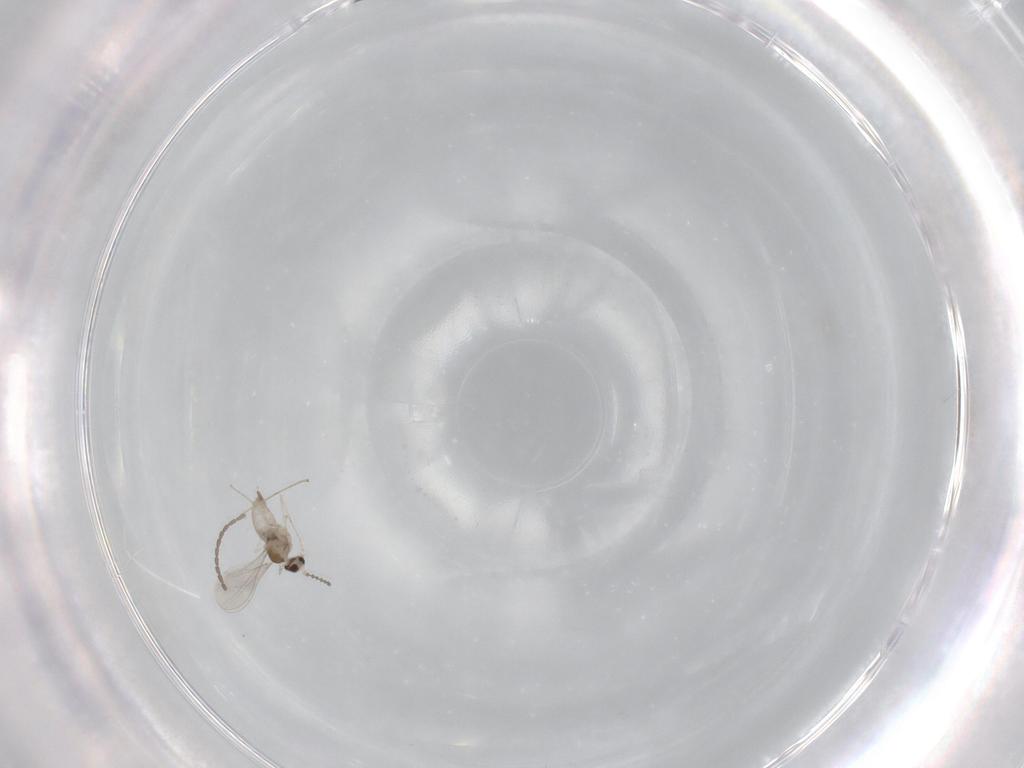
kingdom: Animalia
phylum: Arthropoda
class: Insecta
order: Diptera
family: Cecidomyiidae
